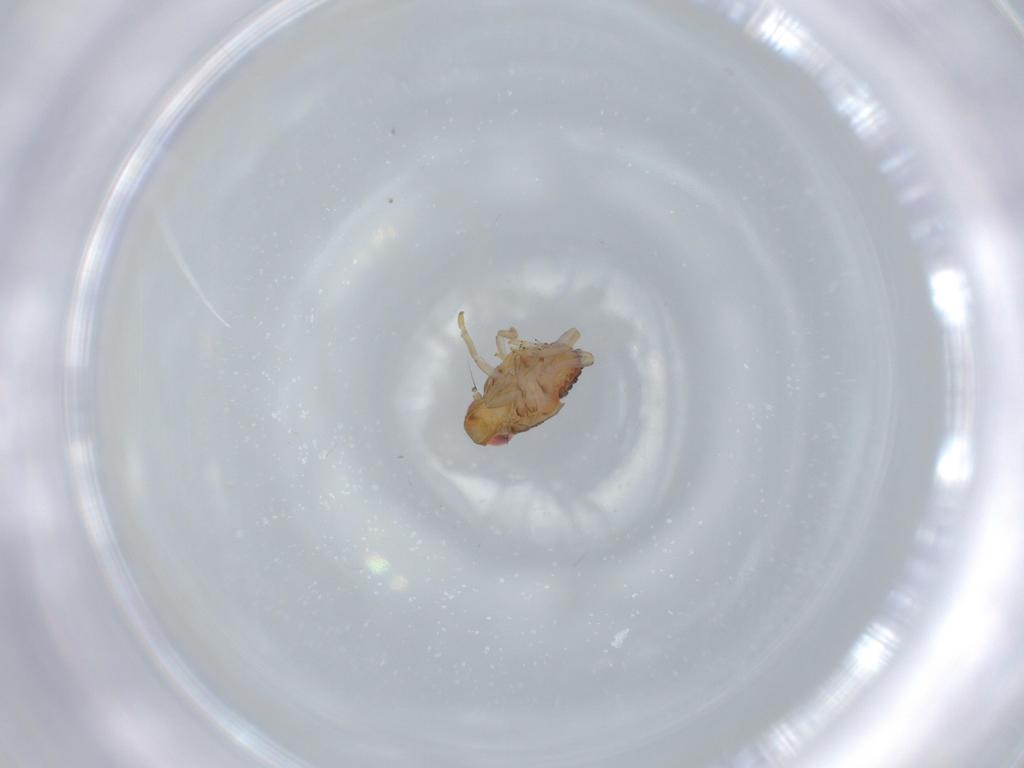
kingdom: Animalia
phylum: Arthropoda
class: Insecta
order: Hemiptera
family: Issidae
